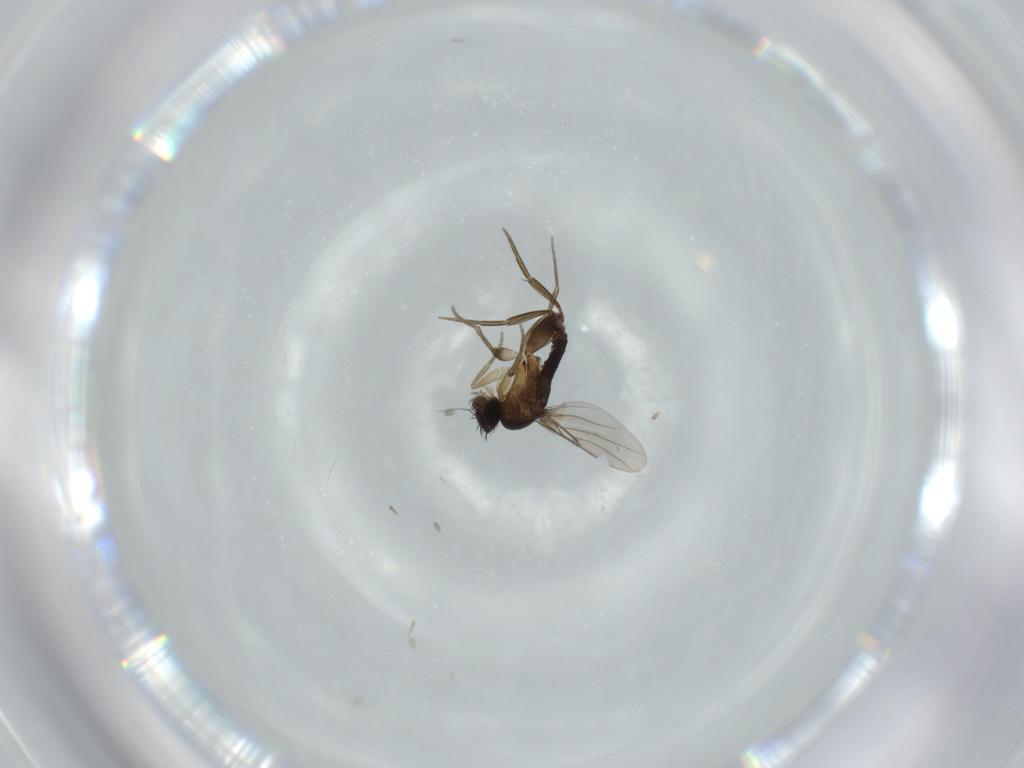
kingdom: Animalia
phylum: Arthropoda
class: Insecta
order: Diptera
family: Phoridae
